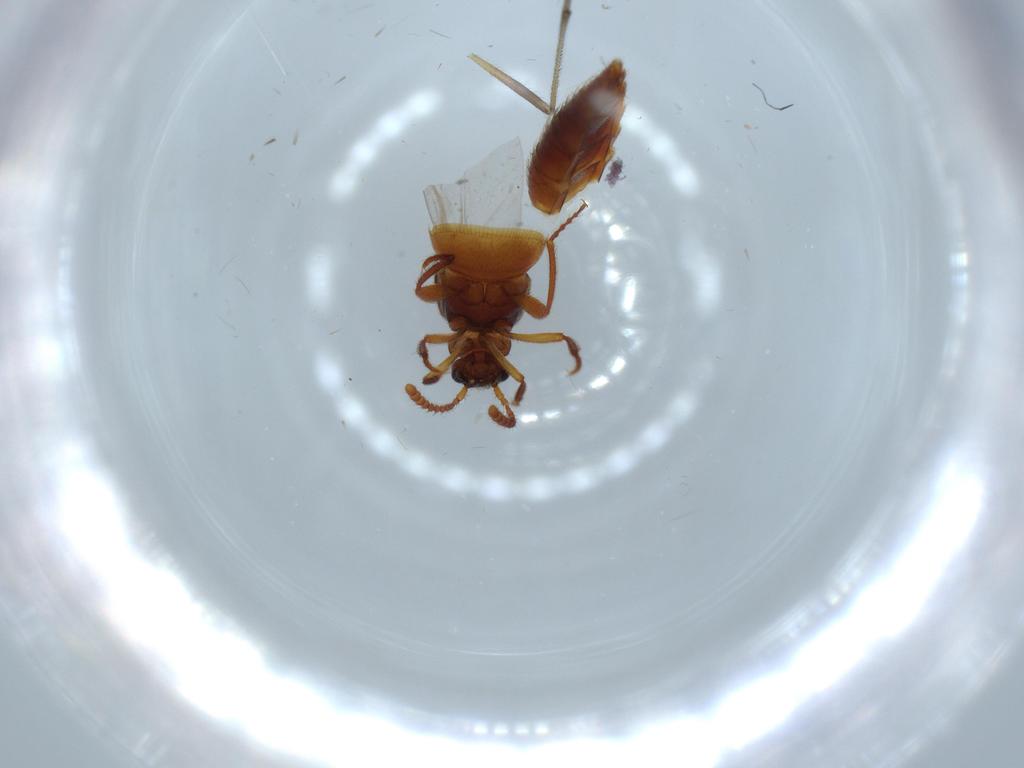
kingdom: Animalia
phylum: Arthropoda
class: Insecta
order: Coleoptera
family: Staphylinidae
